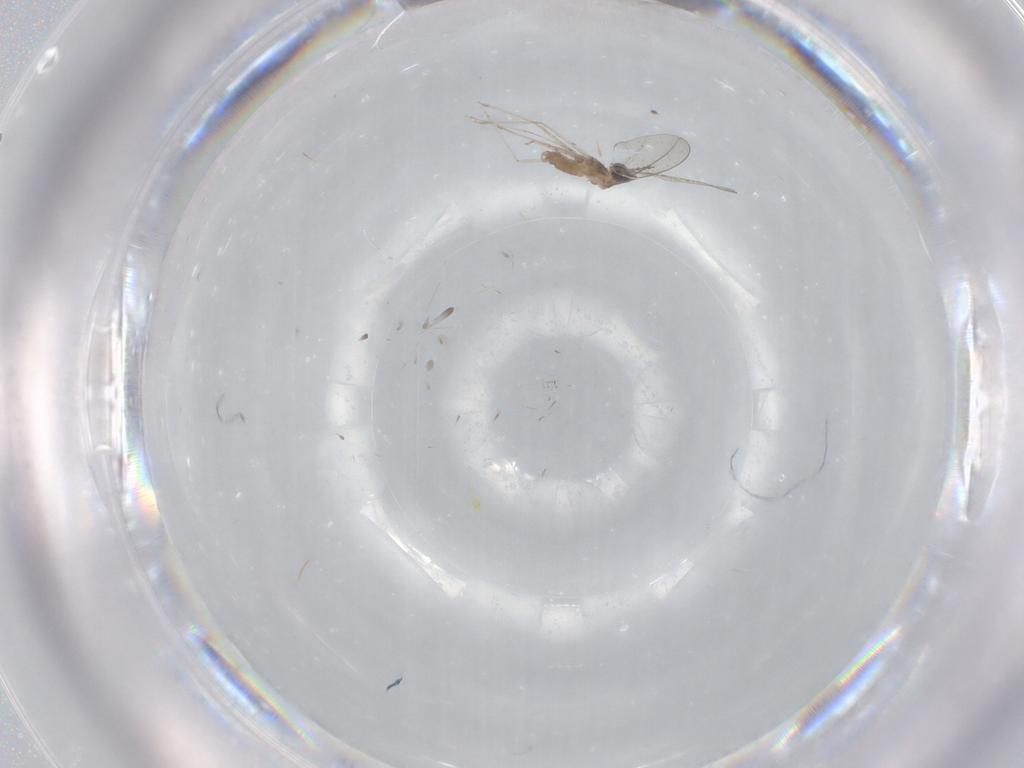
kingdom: Animalia
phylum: Arthropoda
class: Insecta
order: Diptera
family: Cecidomyiidae
